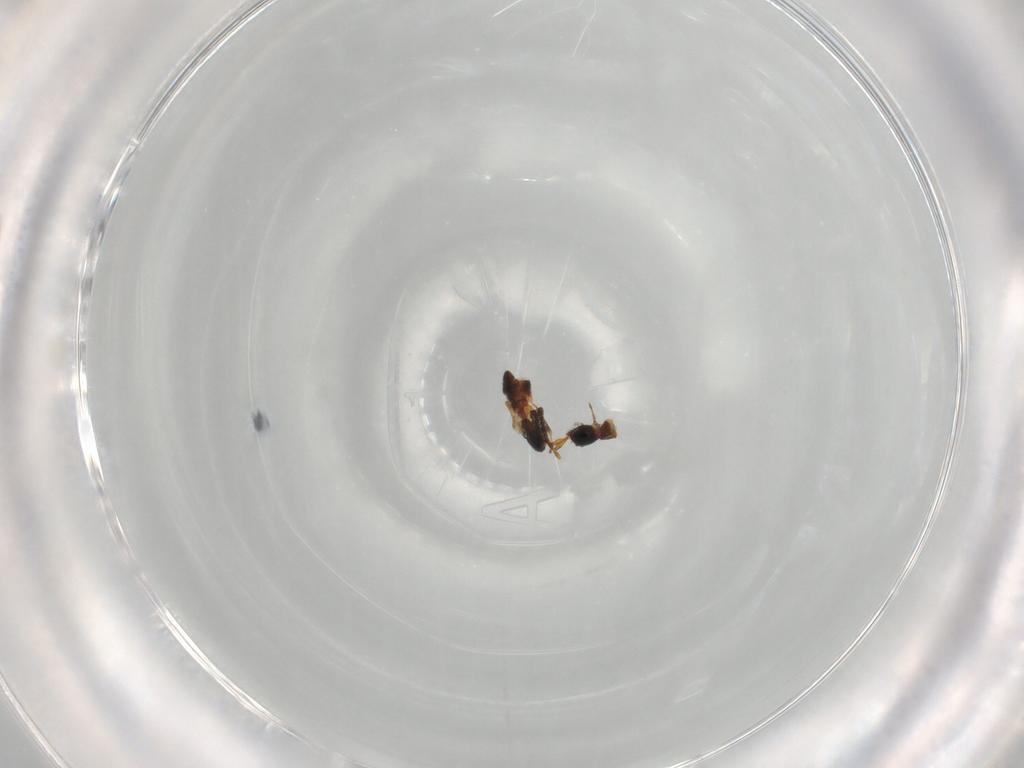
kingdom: Animalia
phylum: Arthropoda
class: Insecta
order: Hymenoptera
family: Diapriidae
